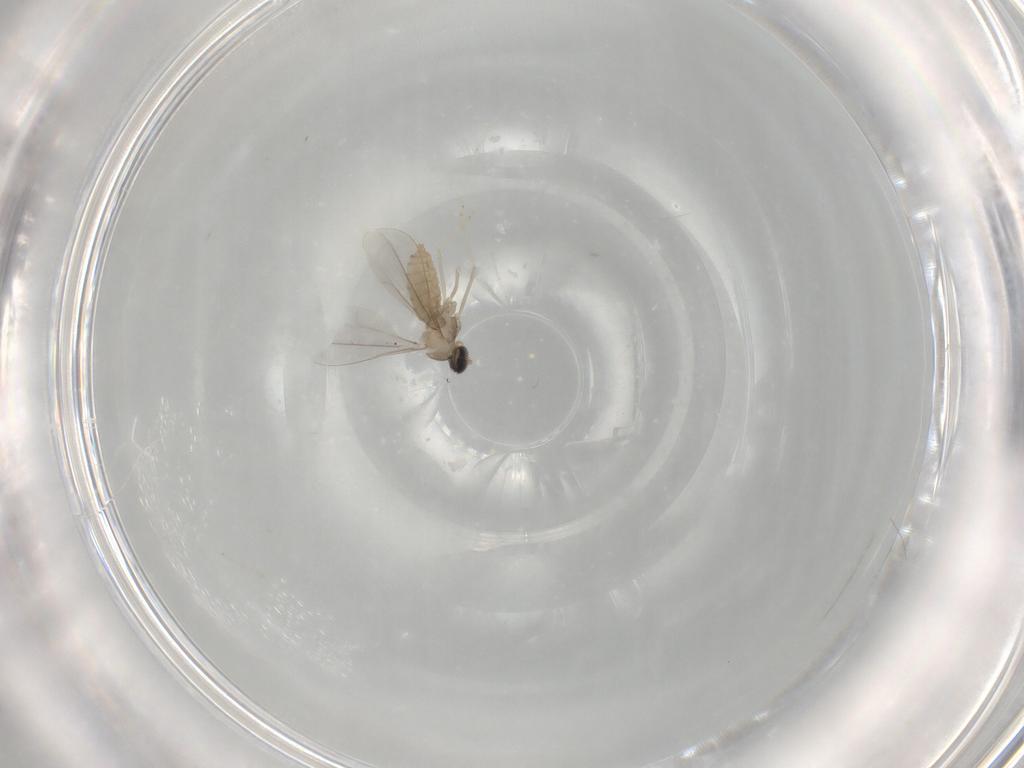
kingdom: Animalia
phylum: Arthropoda
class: Insecta
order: Diptera
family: Cecidomyiidae
